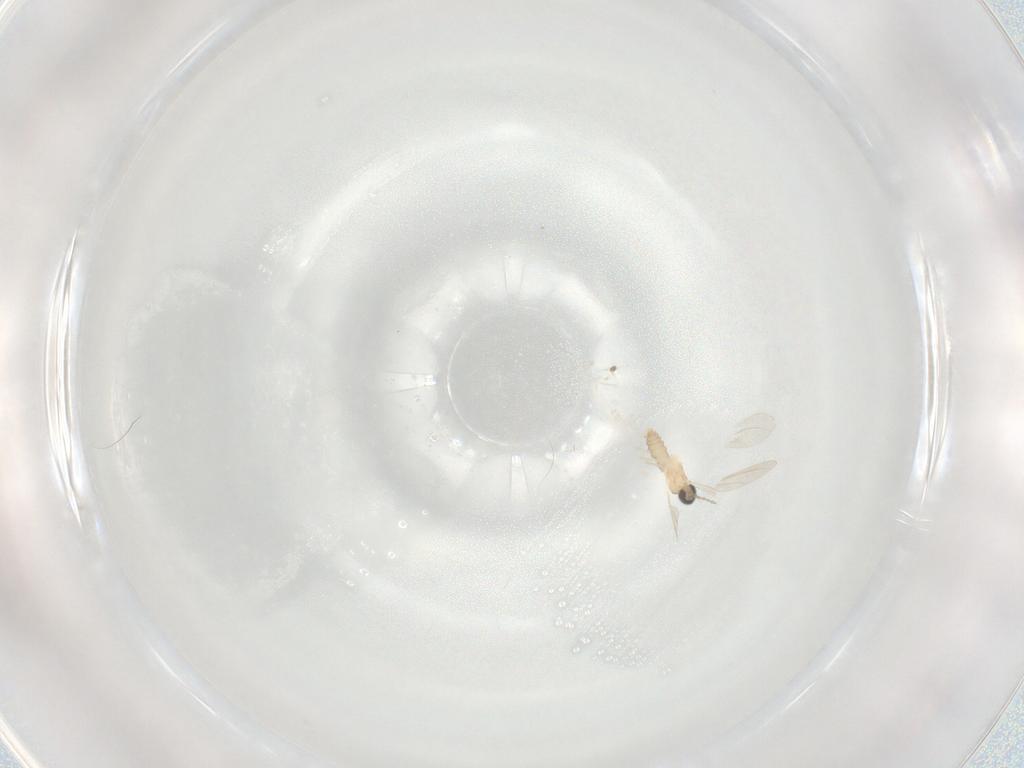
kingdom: Animalia
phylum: Arthropoda
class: Insecta
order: Diptera
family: Cecidomyiidae
